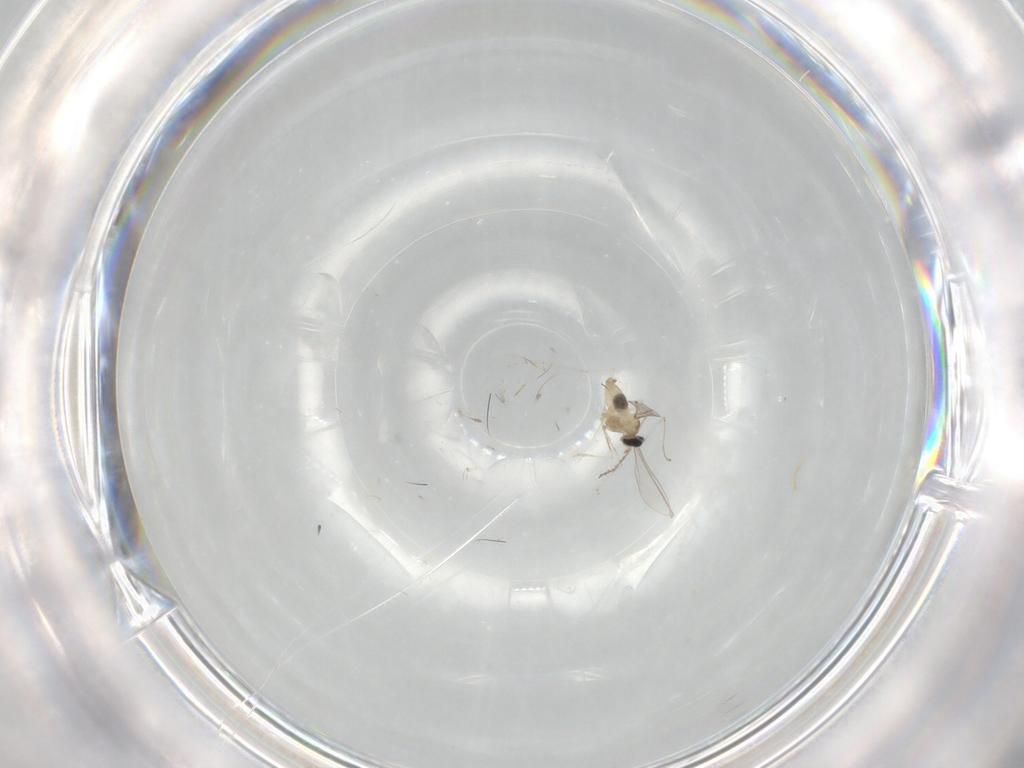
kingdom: Animalia
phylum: Arthropoda
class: Insecta
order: Diptera
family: Cecidomyiidae
